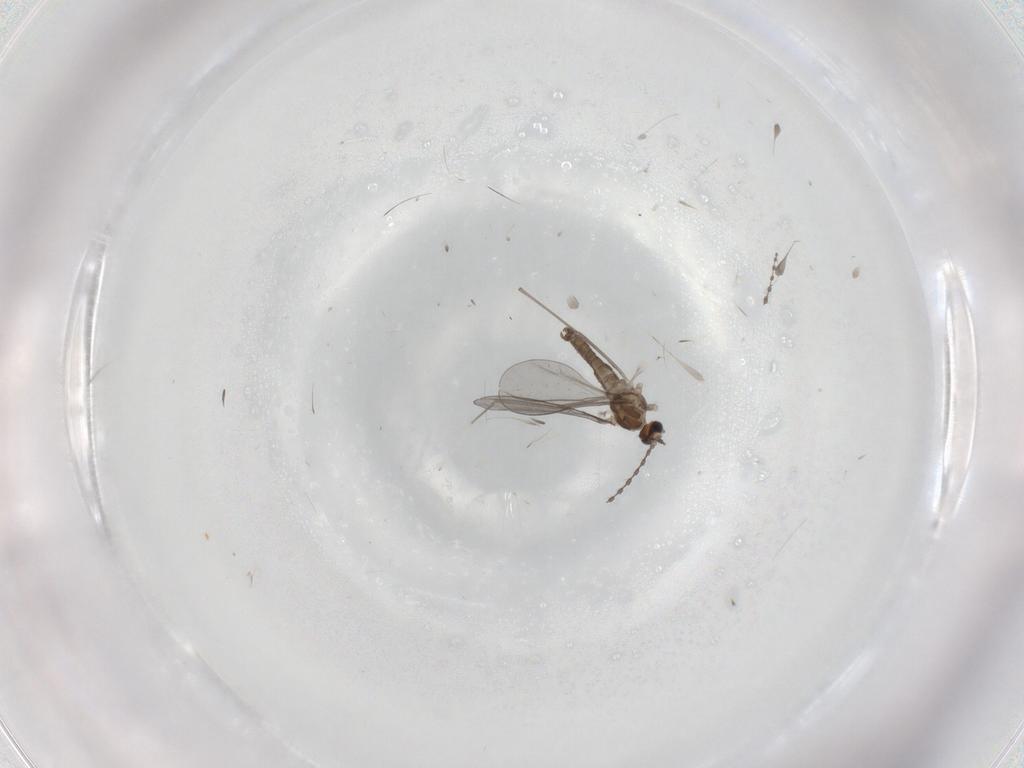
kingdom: Animalia
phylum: Arthropoda
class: Insecta
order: Diptera
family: Cecidomyiidae
